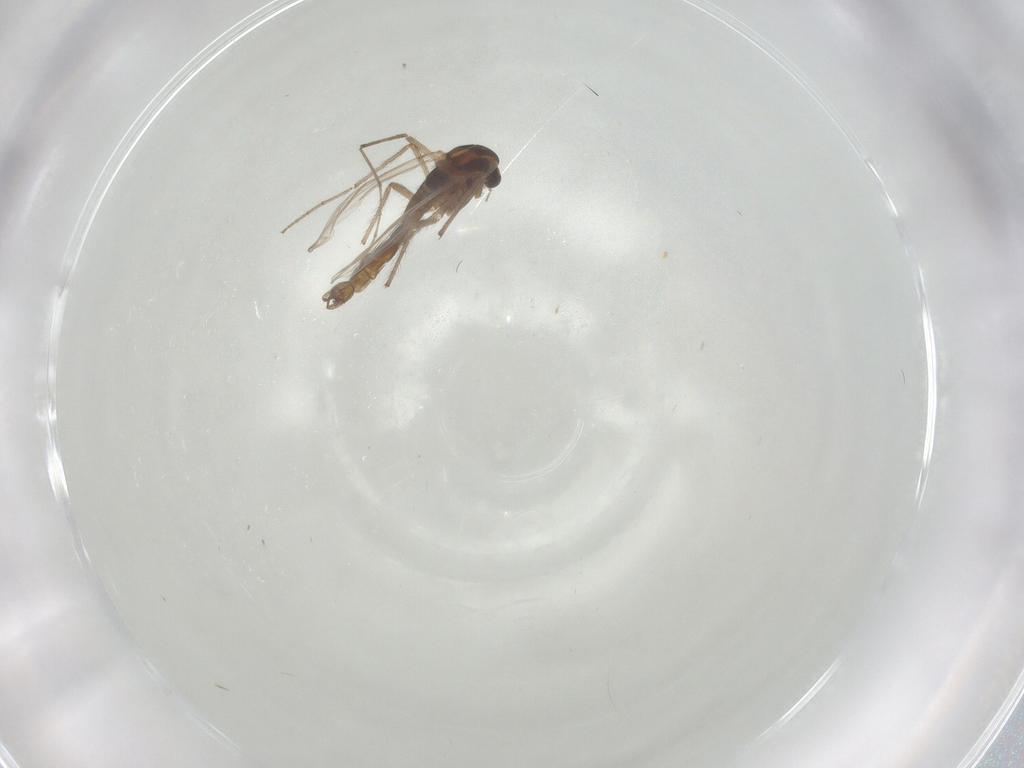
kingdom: Animalia
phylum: Arthropoda
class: Insecta
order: Diptera
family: Chironomidae
